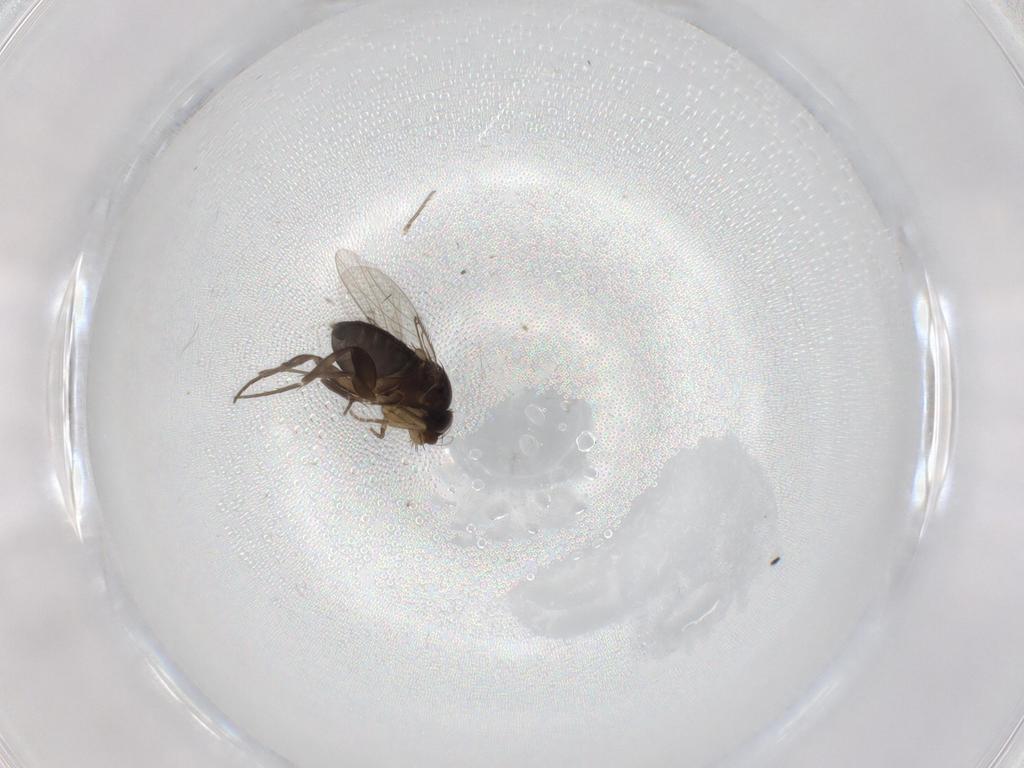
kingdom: Animalia
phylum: Arthropoda
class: Insecta
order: Diptera
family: Phoridae
